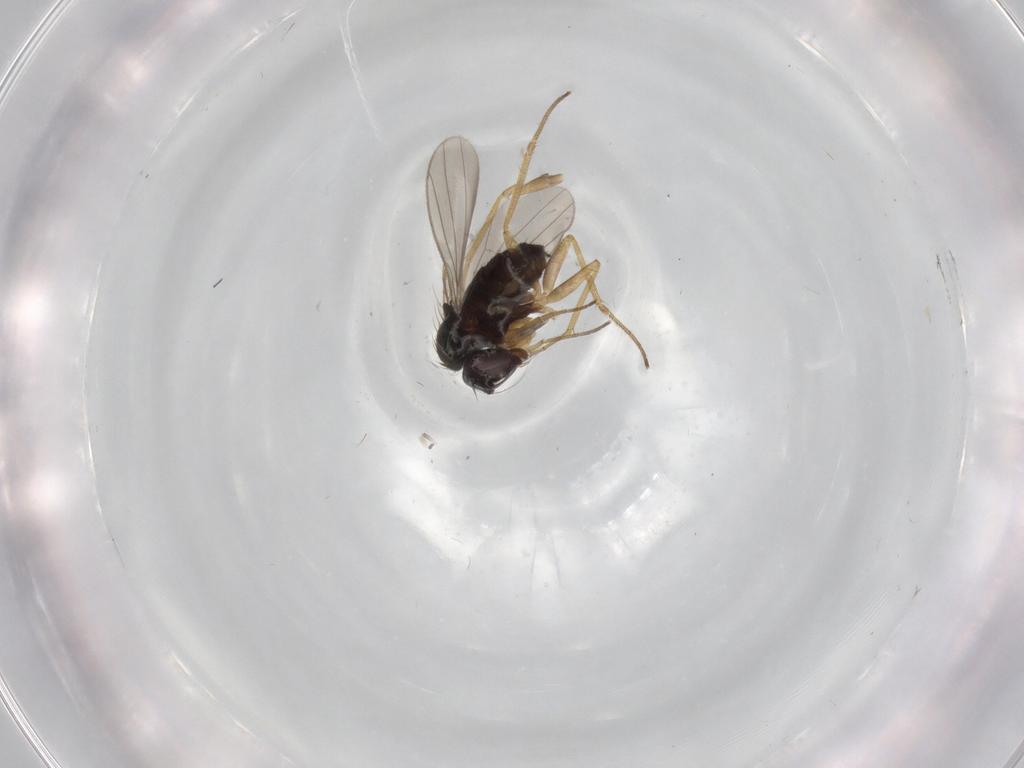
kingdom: Animalia
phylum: Arthropoda
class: Insecta
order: Diptera
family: Dolichopodidae
